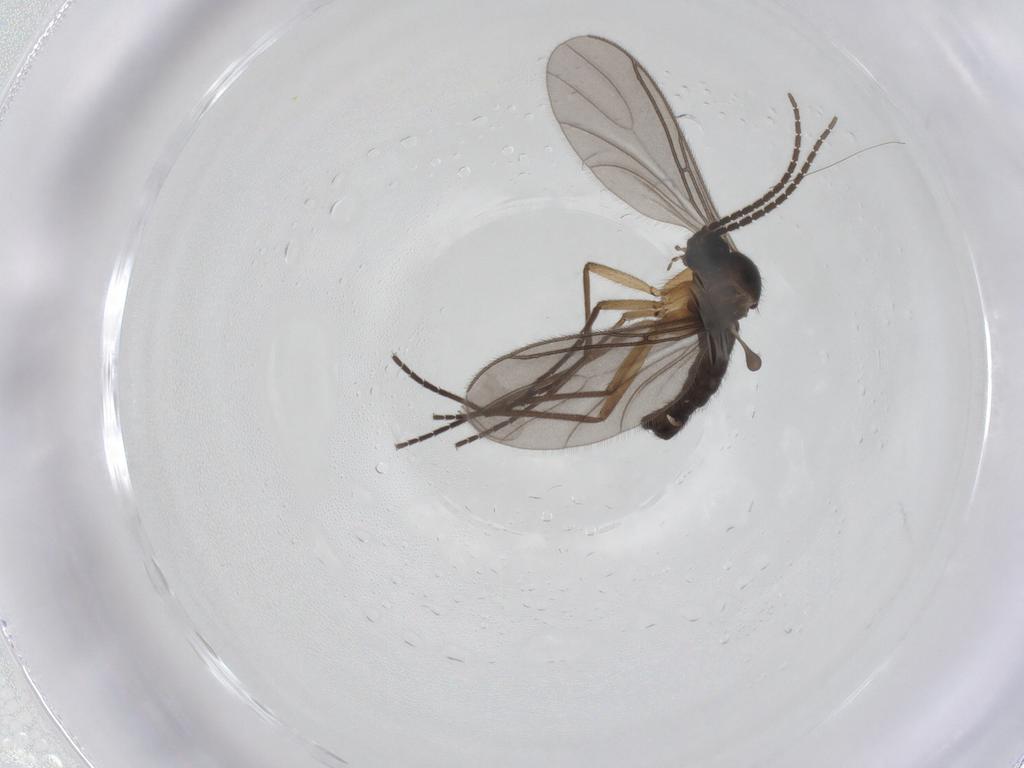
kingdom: Animalia
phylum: Arthropoda
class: Insecta
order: Diptera
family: Sciaridae
